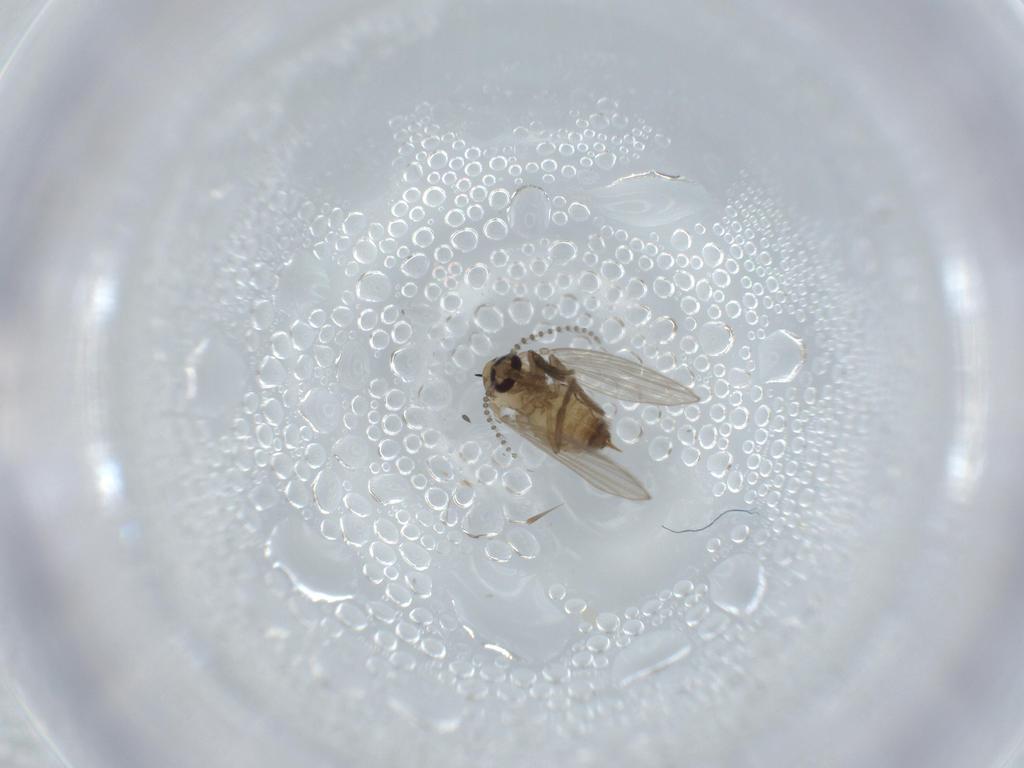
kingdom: Animalia
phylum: Arthropoda
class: Insecta
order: Diptera
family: Psychodidae
